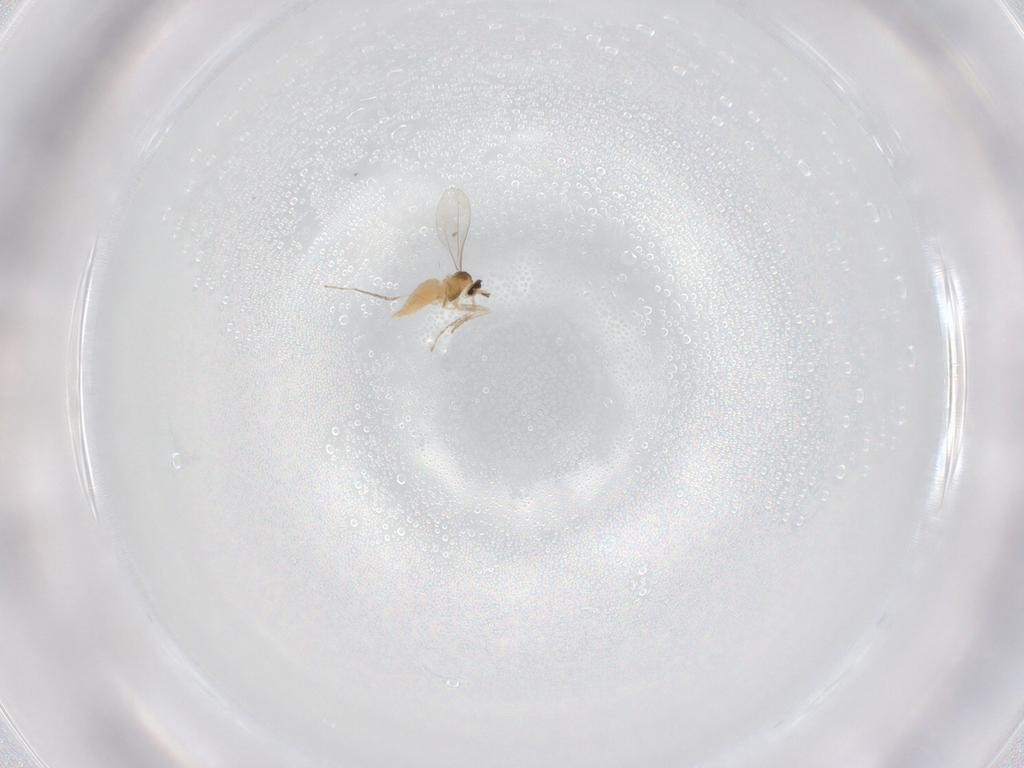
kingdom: Animalia
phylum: Arthropoda
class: Insecta
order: Diptera
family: Cecidomyiidae
